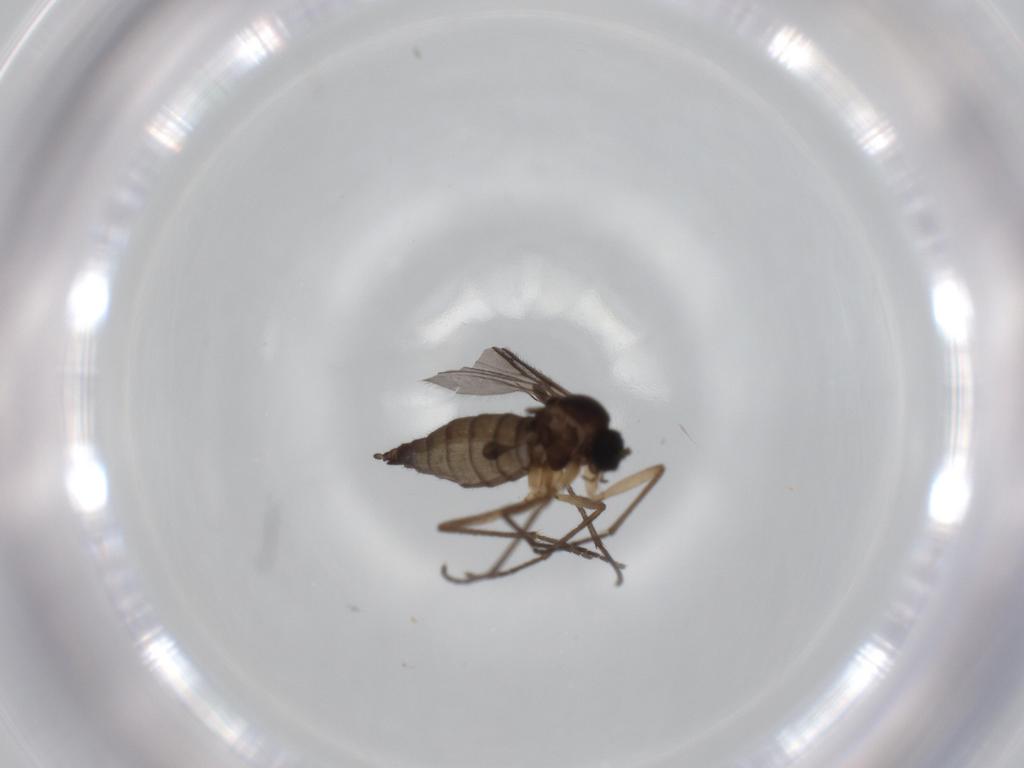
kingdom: Animalia
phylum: Arthropoda
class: Insecta
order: Diptera
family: Sciaridae
